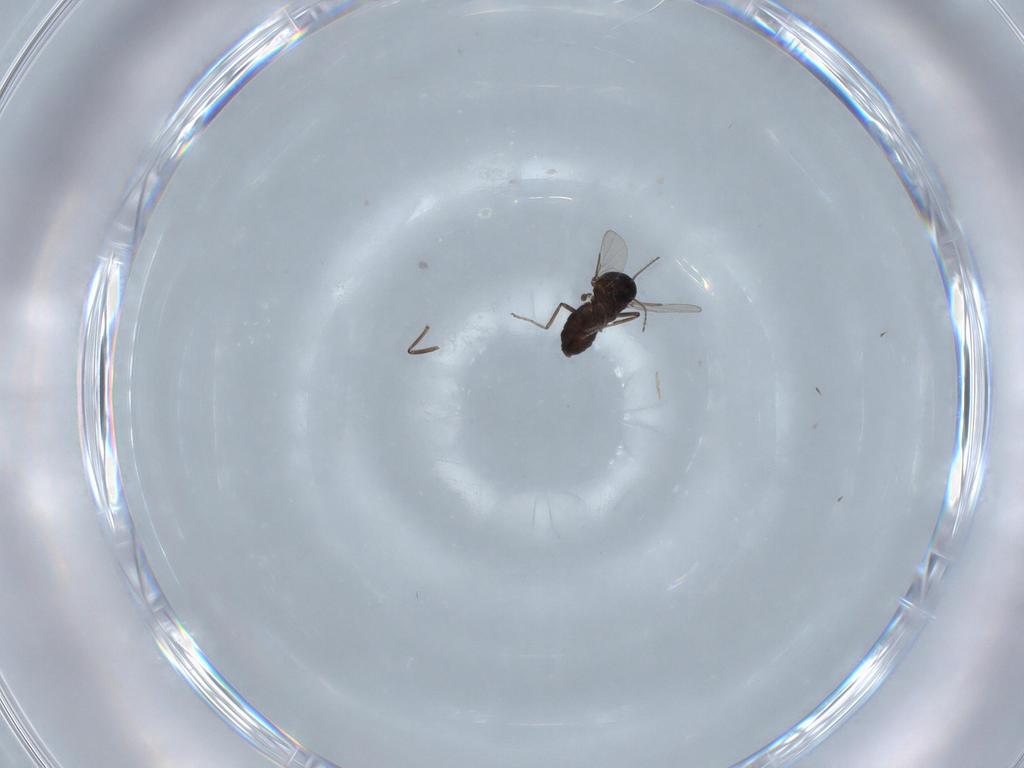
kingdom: Animalia
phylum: Arthropoda
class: Insecta
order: Diptera
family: Ceratopogonidae
